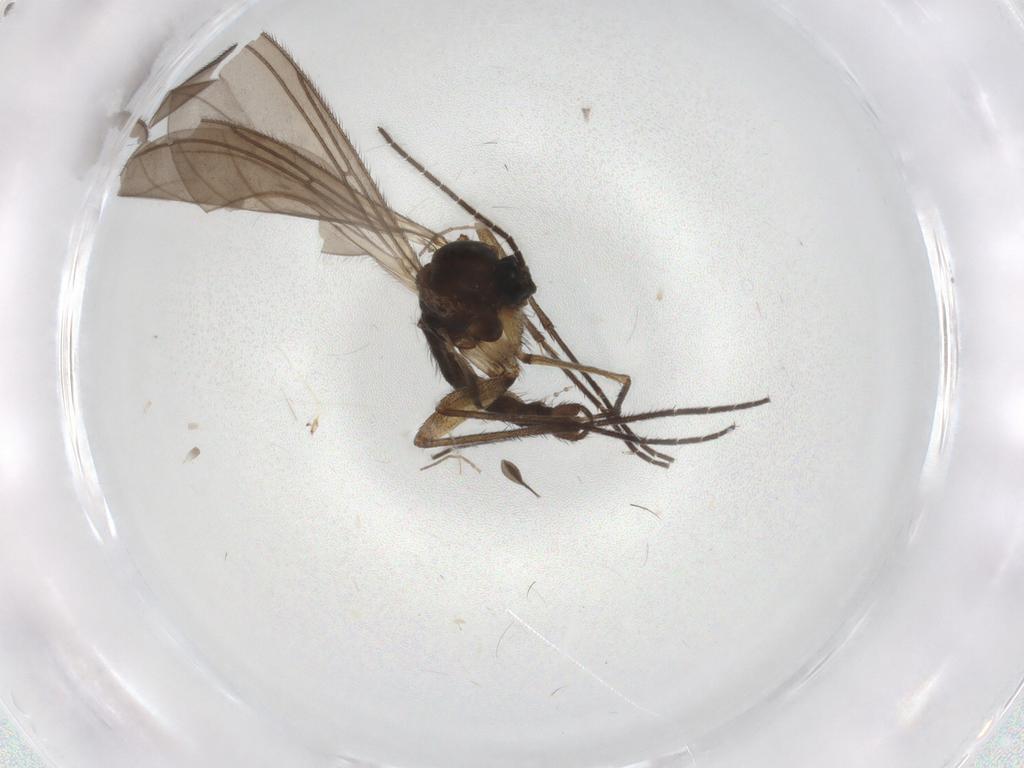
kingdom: Animalia
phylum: Arthropoda
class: Insecta
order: Diptera
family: Sciaridae
